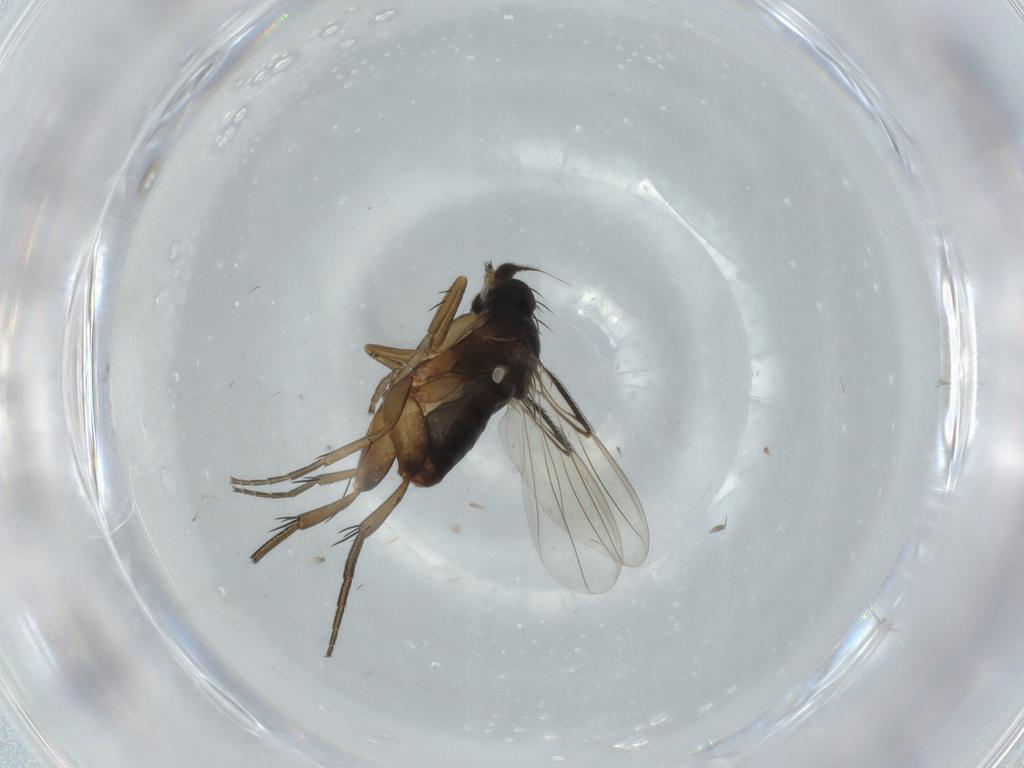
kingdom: Animalia
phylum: Arthropoda
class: Insecta
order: Diptera
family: Phoridae
